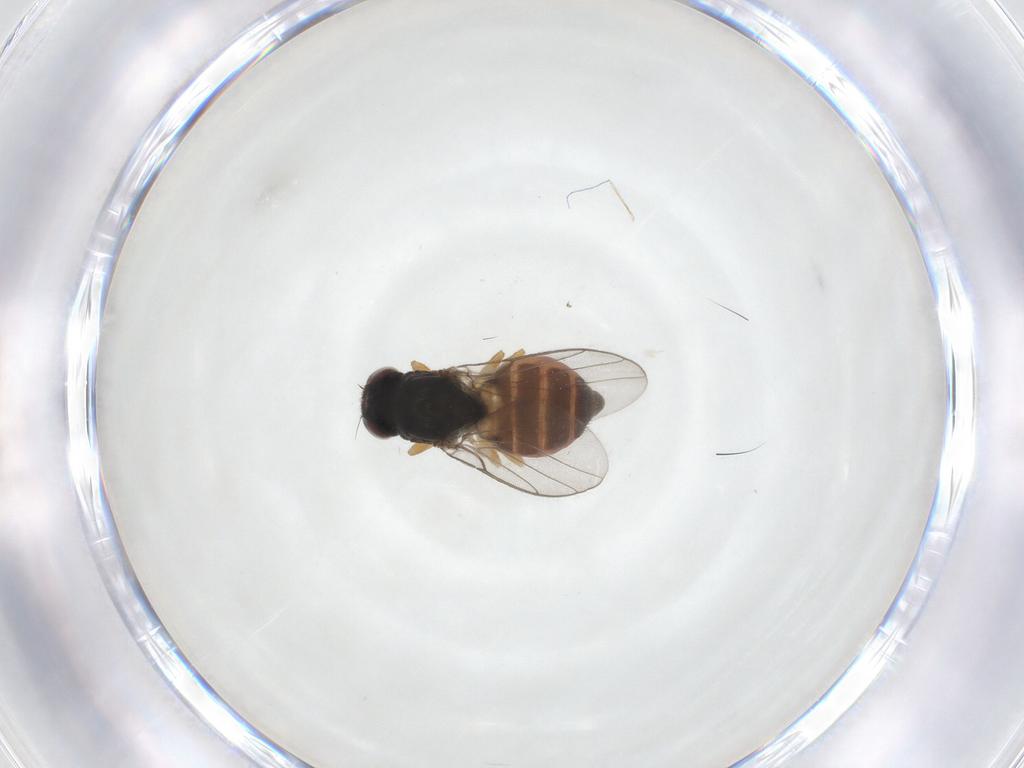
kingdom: Animalia
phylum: Arthropoda
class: Insecta
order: Diptera
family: Chloropidae
